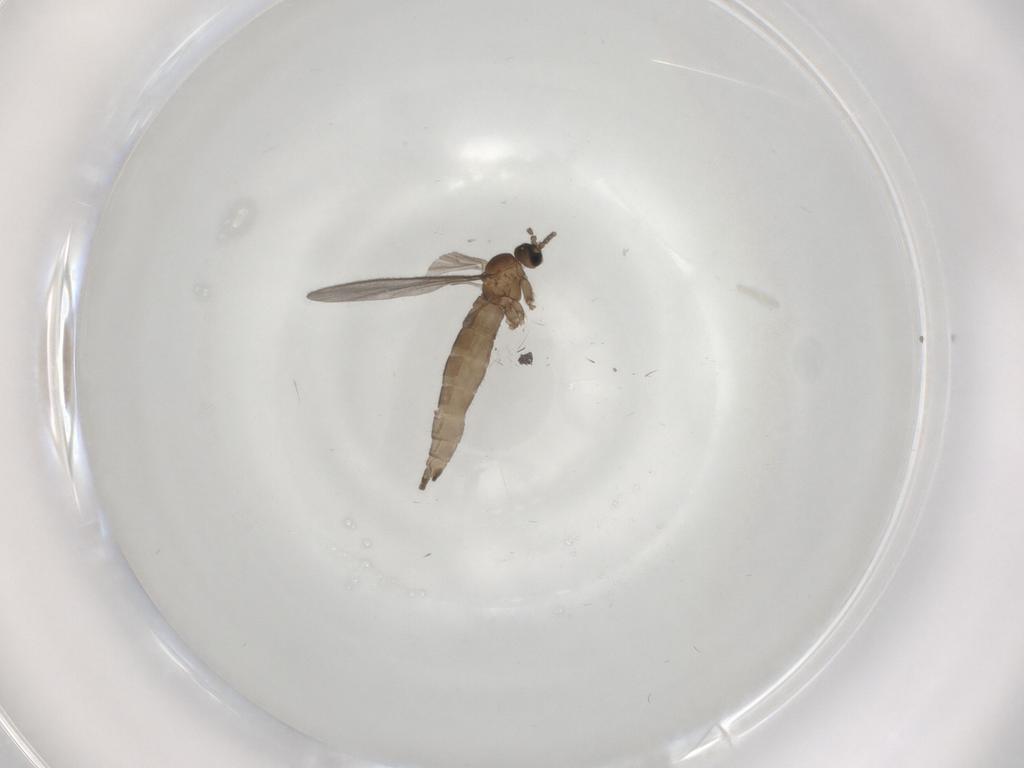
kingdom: Animalia
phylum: Arthropoda
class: Insecta
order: Diptera
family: Sciaridae
